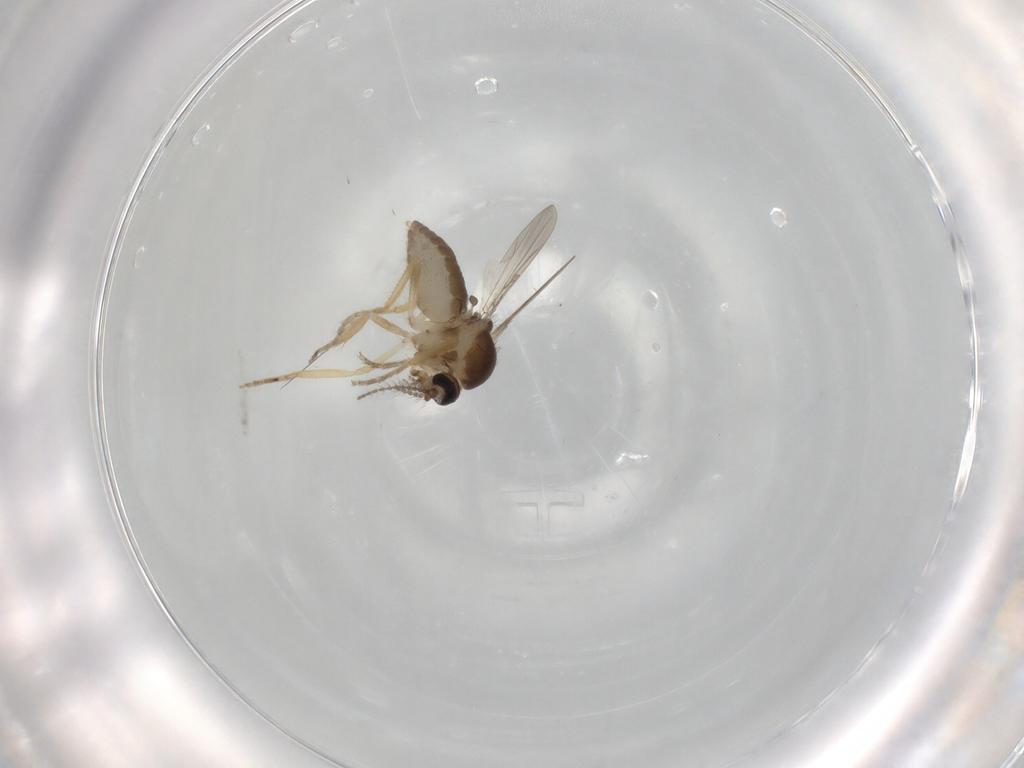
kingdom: Animalia
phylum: Arthropoda
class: Insecta
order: Diptera
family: Ceratopogonidae
